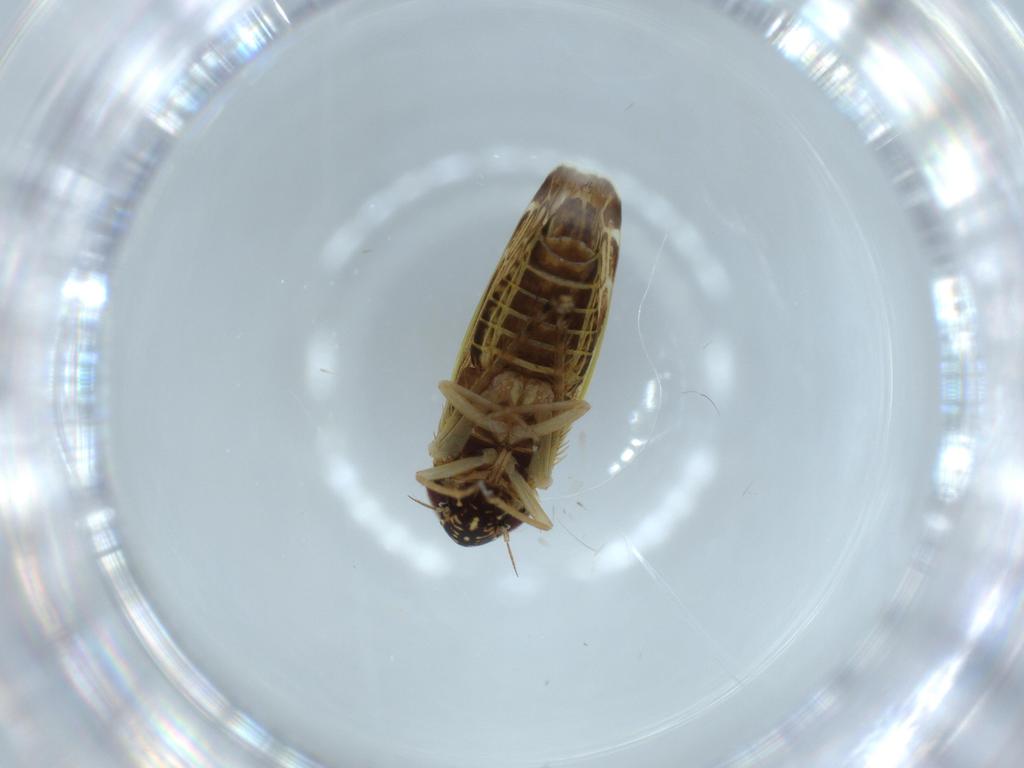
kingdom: Animalia
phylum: Arthropoda
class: Insecta
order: Hemiptera
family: Cicadellidae
